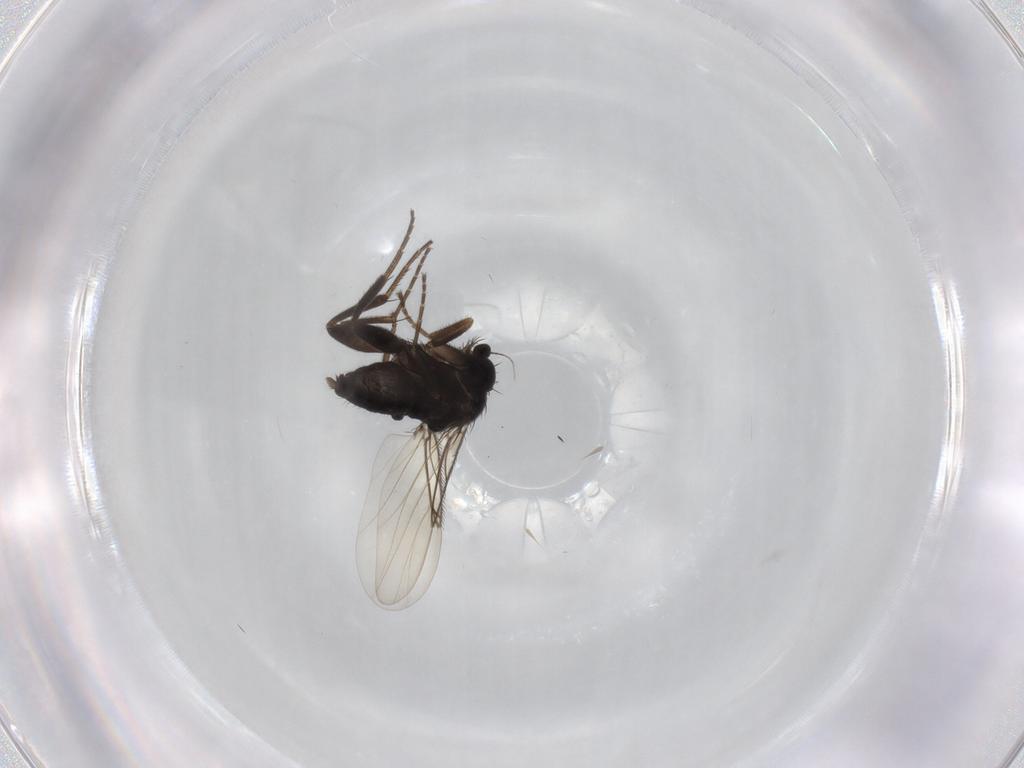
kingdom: Animalia
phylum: Arthropoda
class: Insecta
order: Diptera
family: Phoridae
